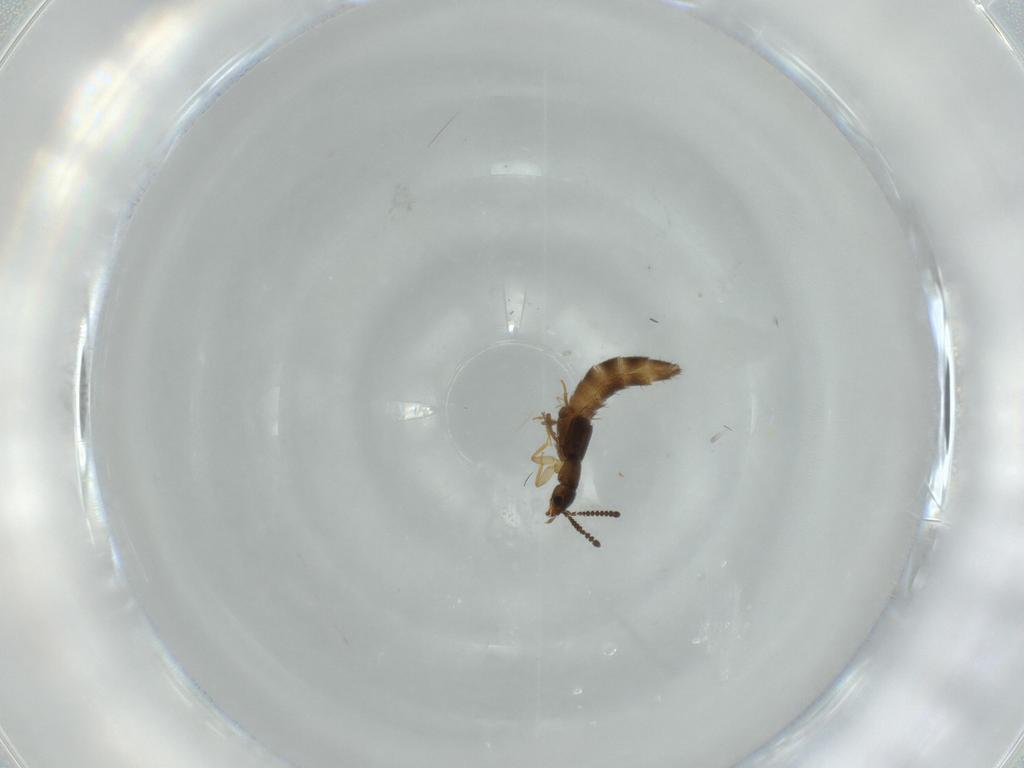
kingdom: Animalia
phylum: Arthropoda
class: Insecta
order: Coleoptera
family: Staphylinidae
